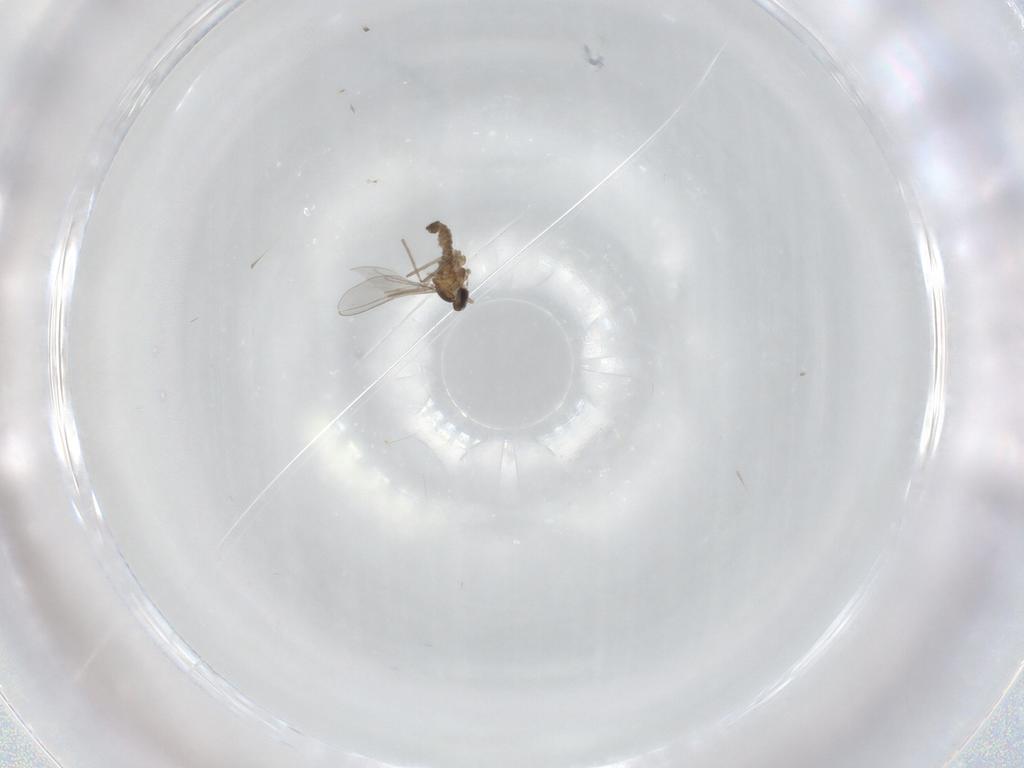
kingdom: Animalia
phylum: Arthropoda
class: Insecta
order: Diptera
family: Cecidomyiidae
